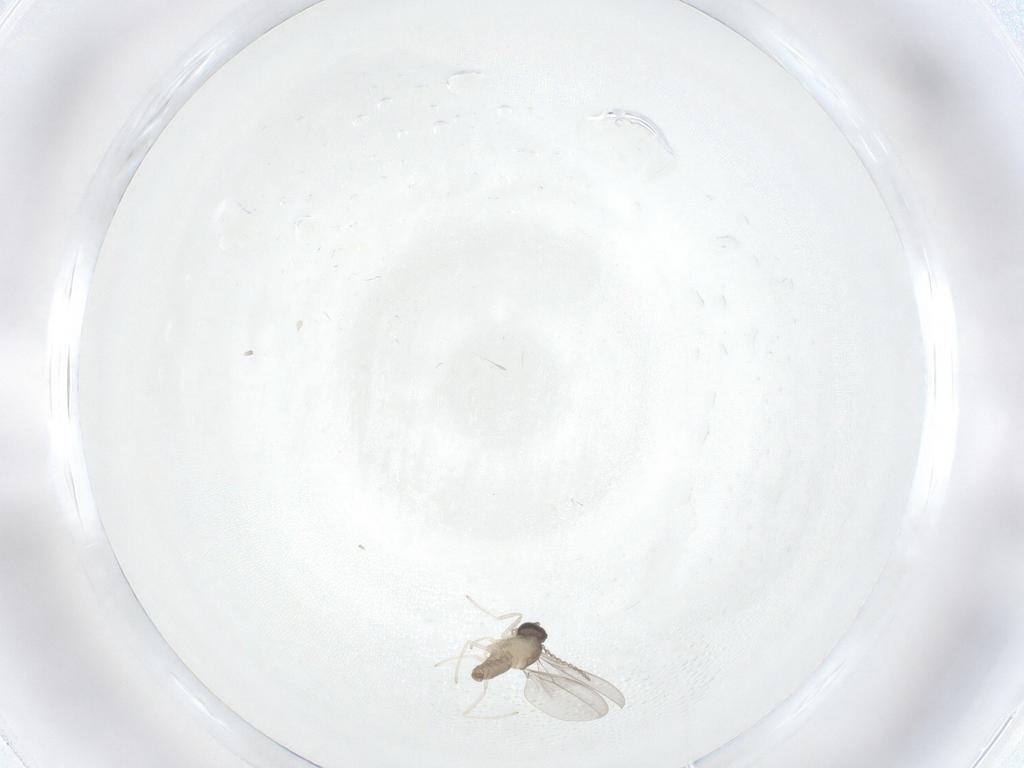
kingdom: Animalia
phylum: Arthropoda
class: Insecta
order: Diptera
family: Cecidomyiidae
